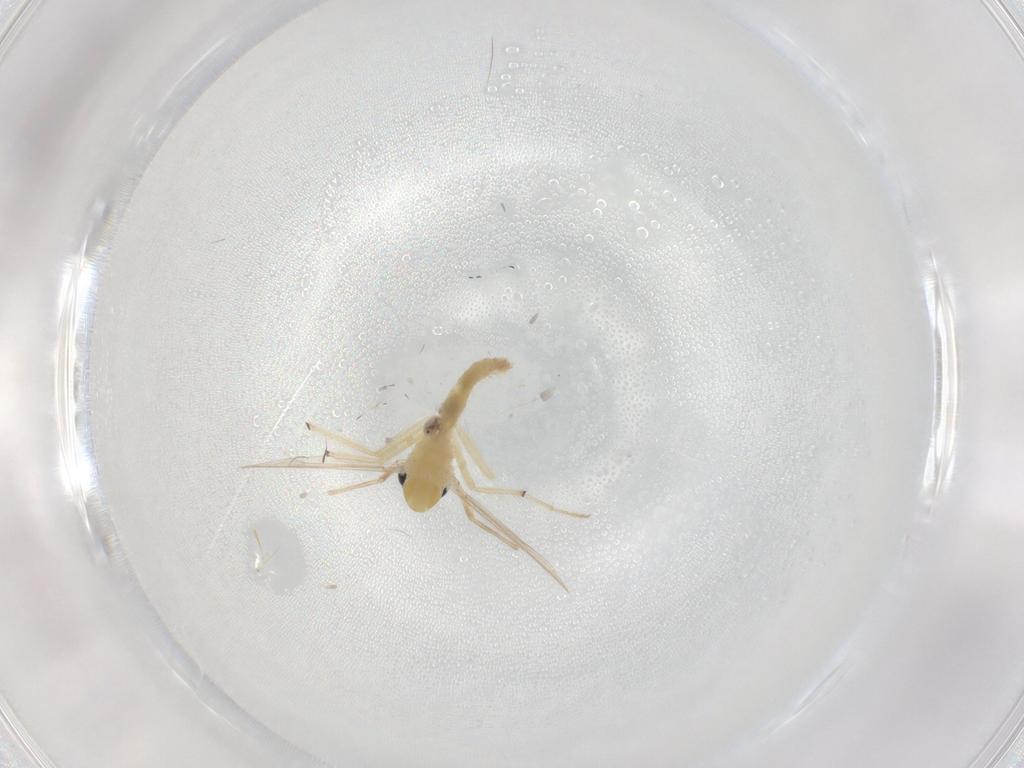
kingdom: Animalia
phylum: Arthropoda
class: Insecta
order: Diptera
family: Chironomidae
